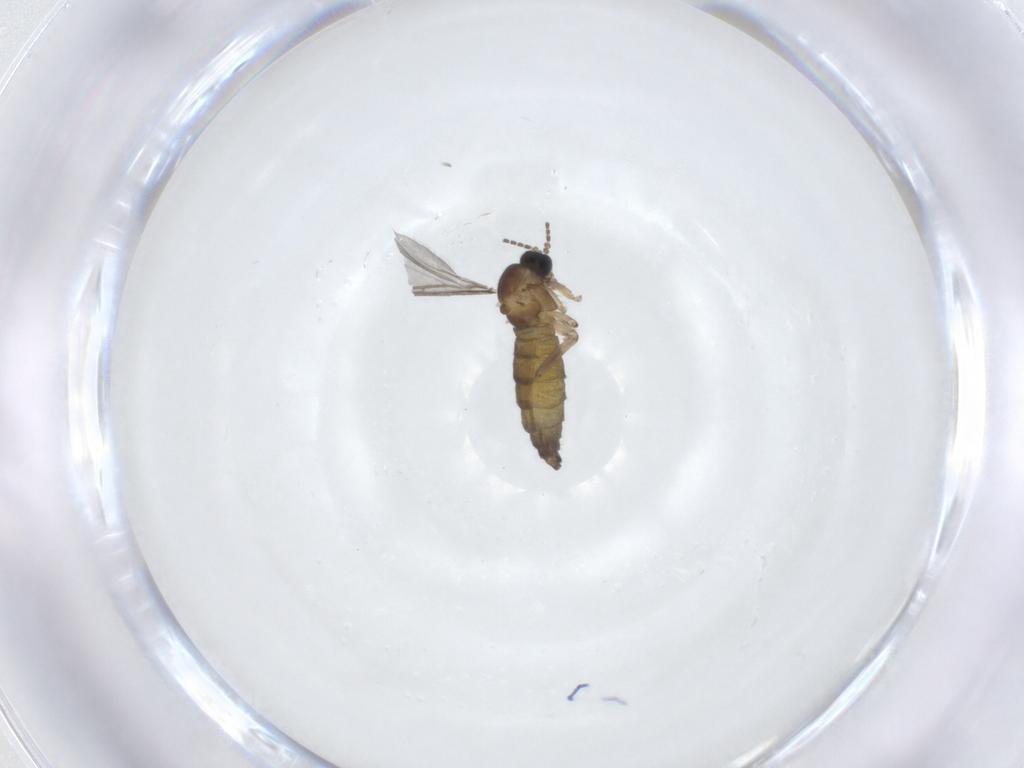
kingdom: Animalia
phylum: Arthropoda
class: Insecta
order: Diptera
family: Sciaridae
